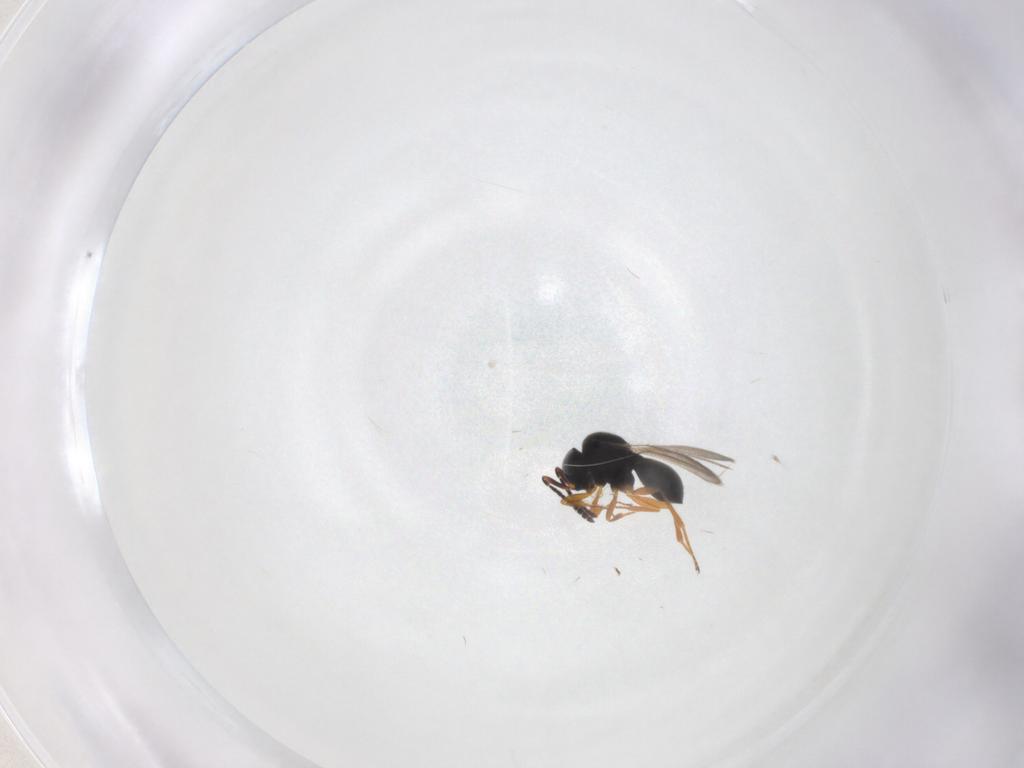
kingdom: Animalia
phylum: Arthropoda
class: Insecta
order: Hymenoptera
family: Scelionidae
